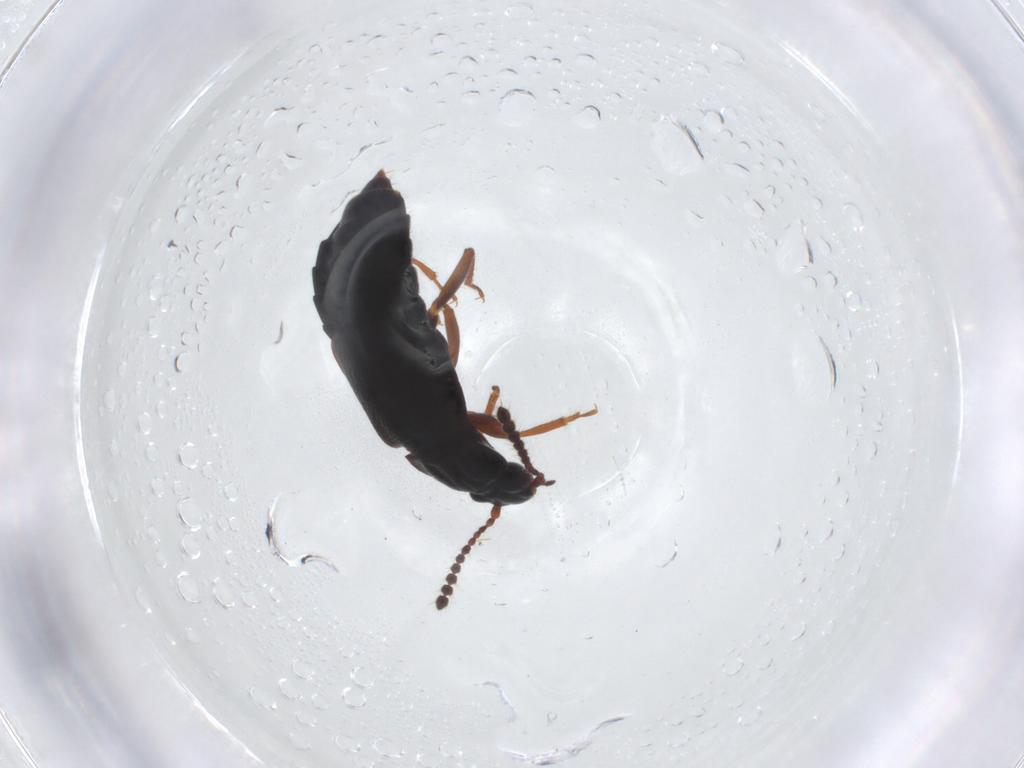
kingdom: Animalia
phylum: Arthropoda
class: Insecta
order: Coleoptera
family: Staphylinidae
